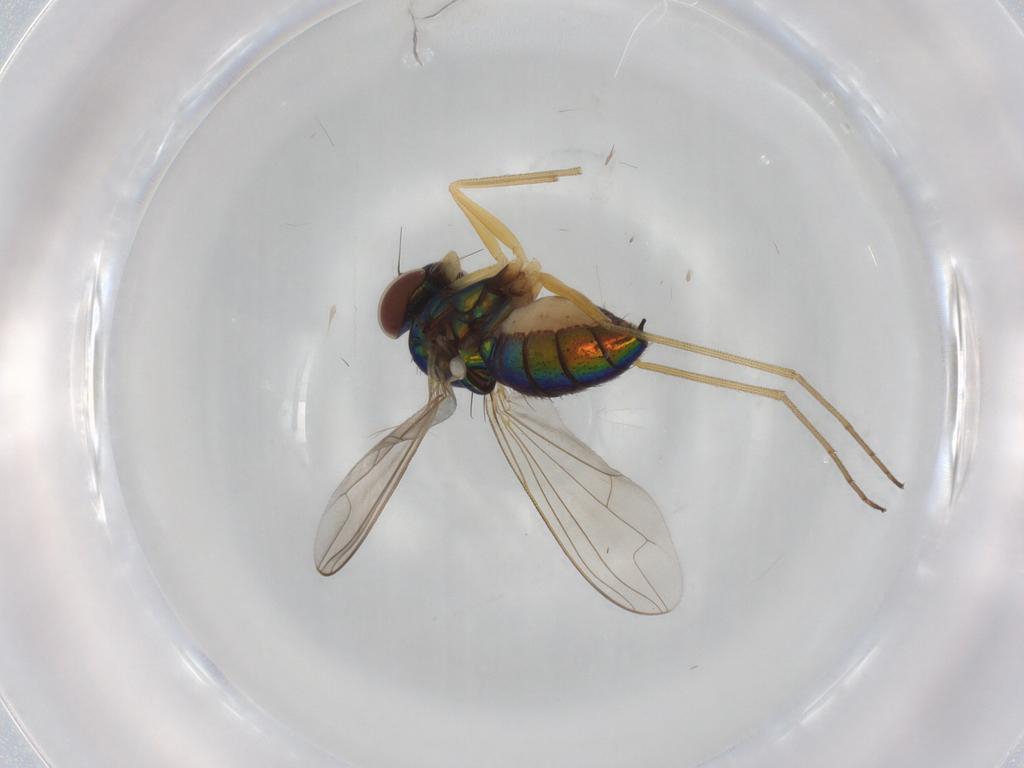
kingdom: Animalia
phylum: Arthropoda
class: Insecta
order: Diptera
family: Dolichopodidae
